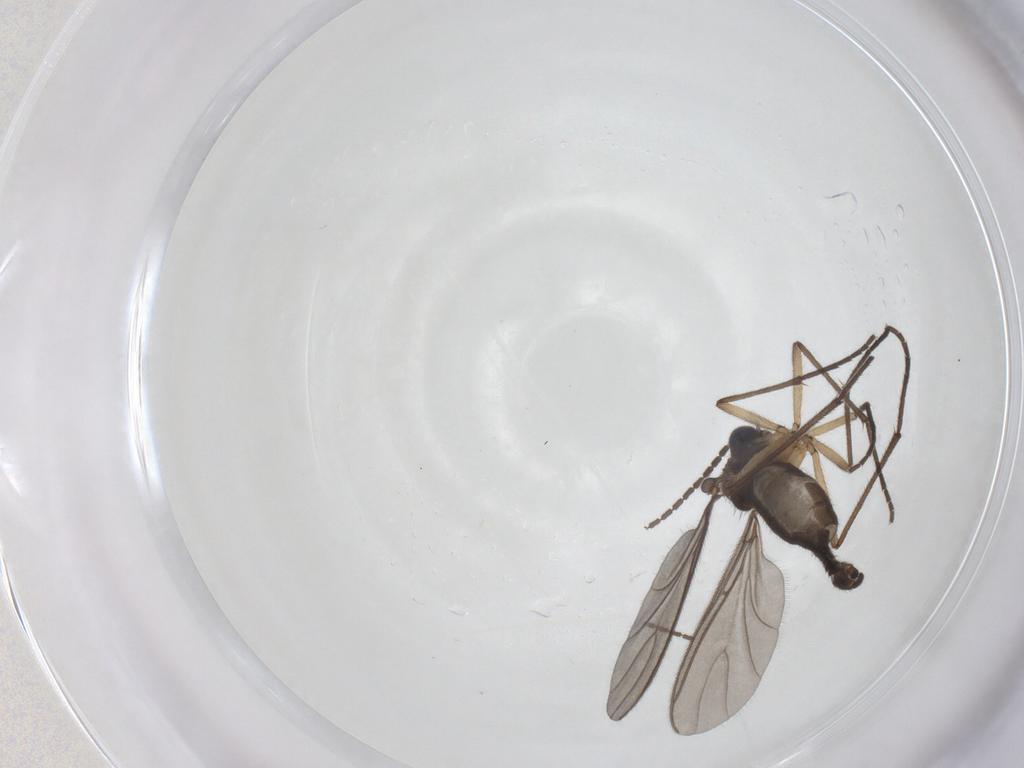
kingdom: Animalia
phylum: Arthropoda
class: Insecta
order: Diptera
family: Sciaridae
